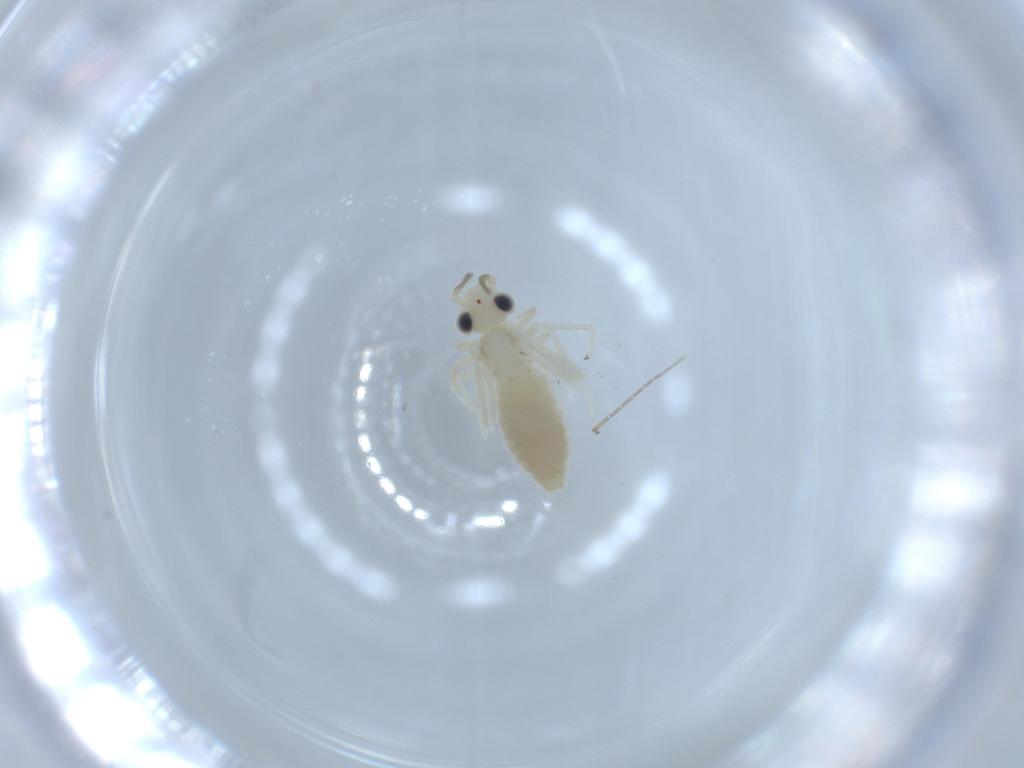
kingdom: Animalia
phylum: Arthropoda
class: Insecta
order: Psocodea
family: Caeciliusidae
